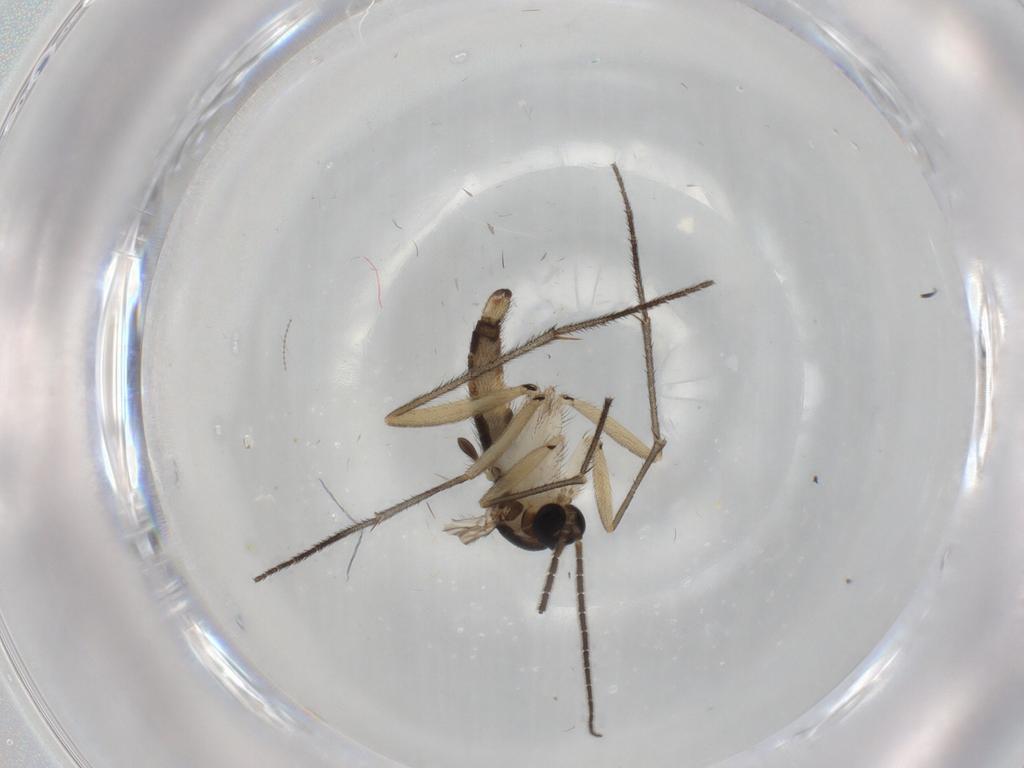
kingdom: Animalia
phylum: Arthropoda
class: Insecta
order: Diptera
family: Sciaridae
